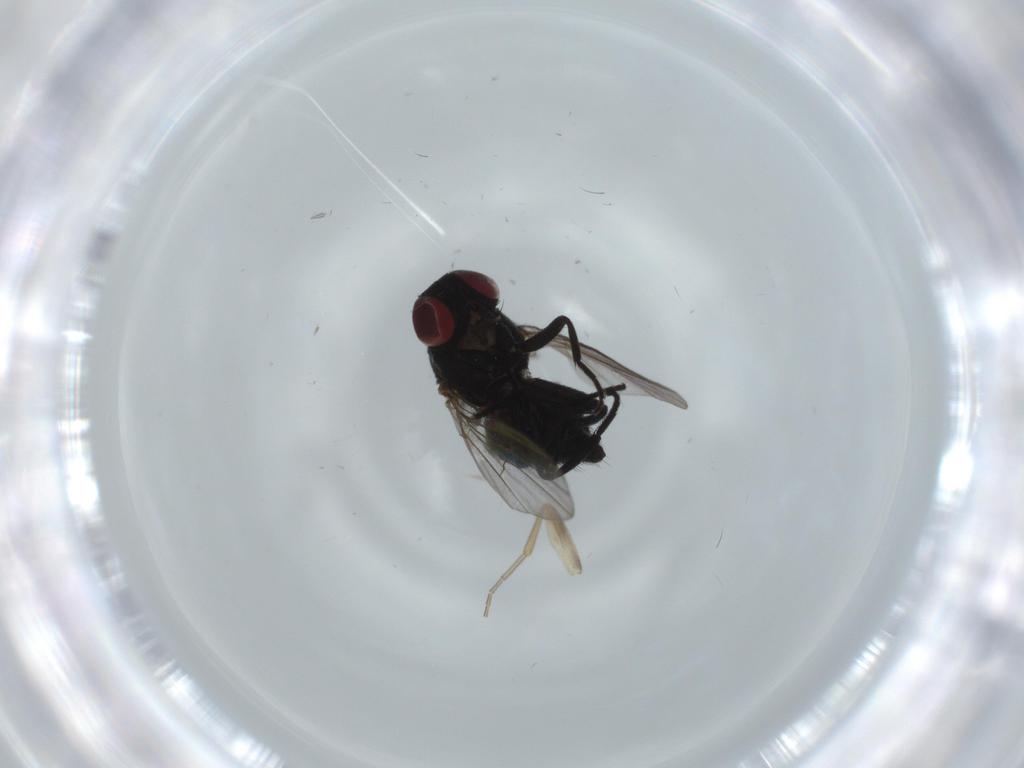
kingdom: Animalia
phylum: Arthropoda
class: Insecta
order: Diptera
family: Agromyzidae
